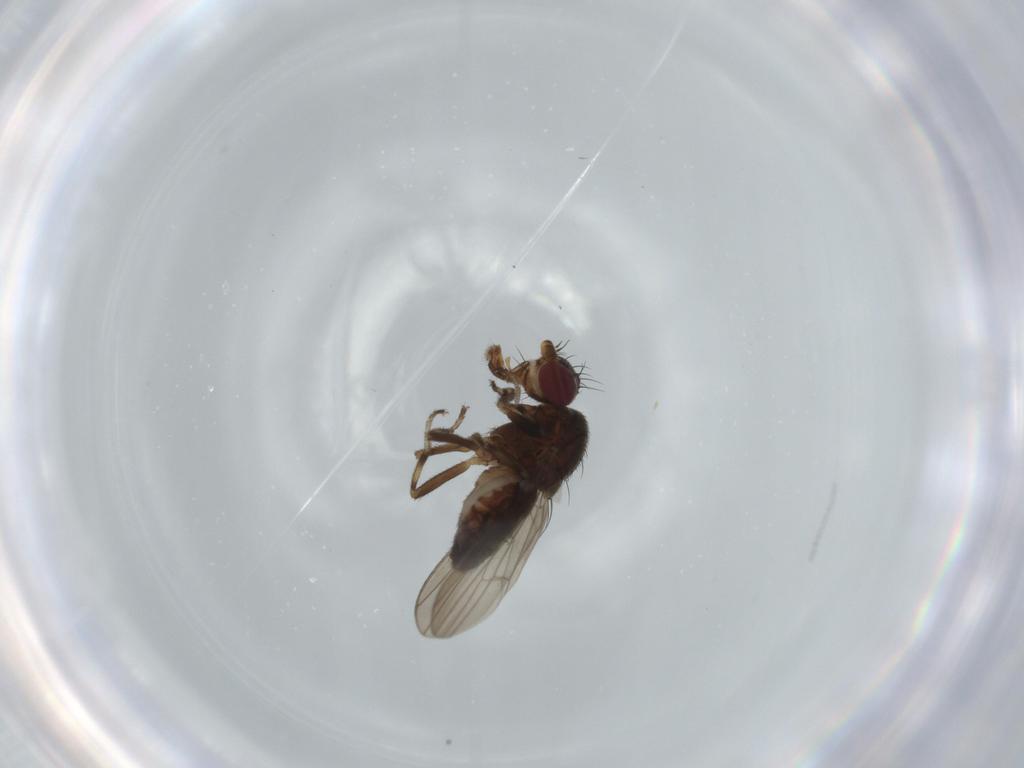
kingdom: Animalia
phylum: Arthropoda
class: Insecta
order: Diptera
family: Heleomyzidae
